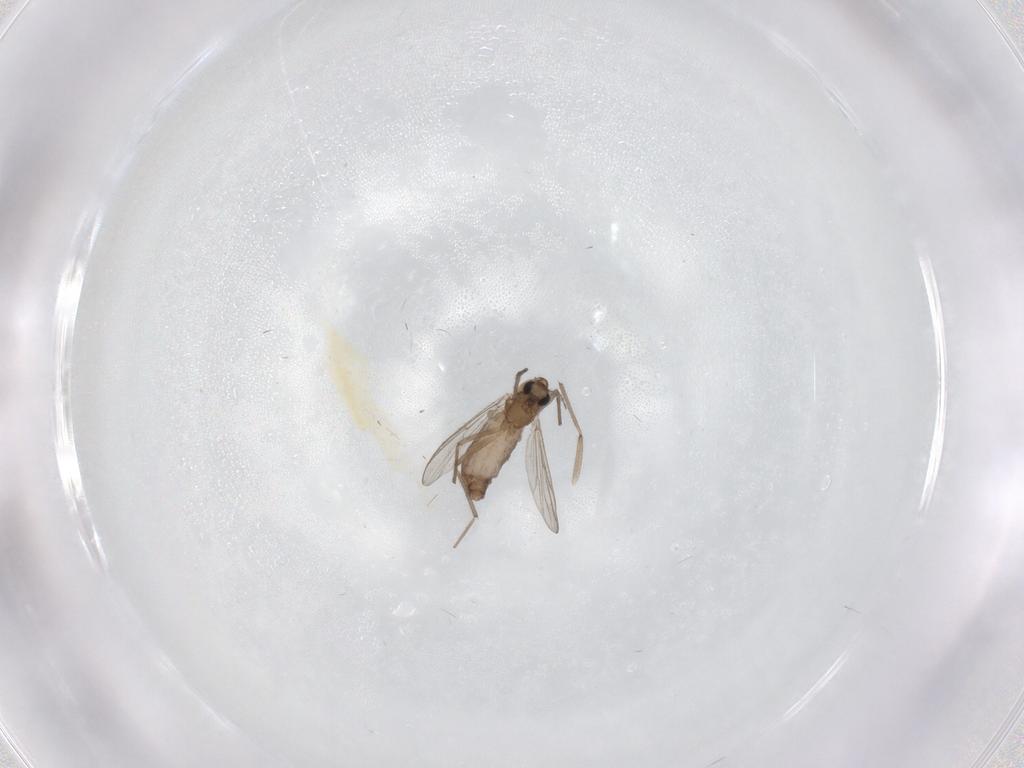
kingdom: Animalia
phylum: Arthropoda
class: Insecta
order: Diptera
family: Chironomidae
